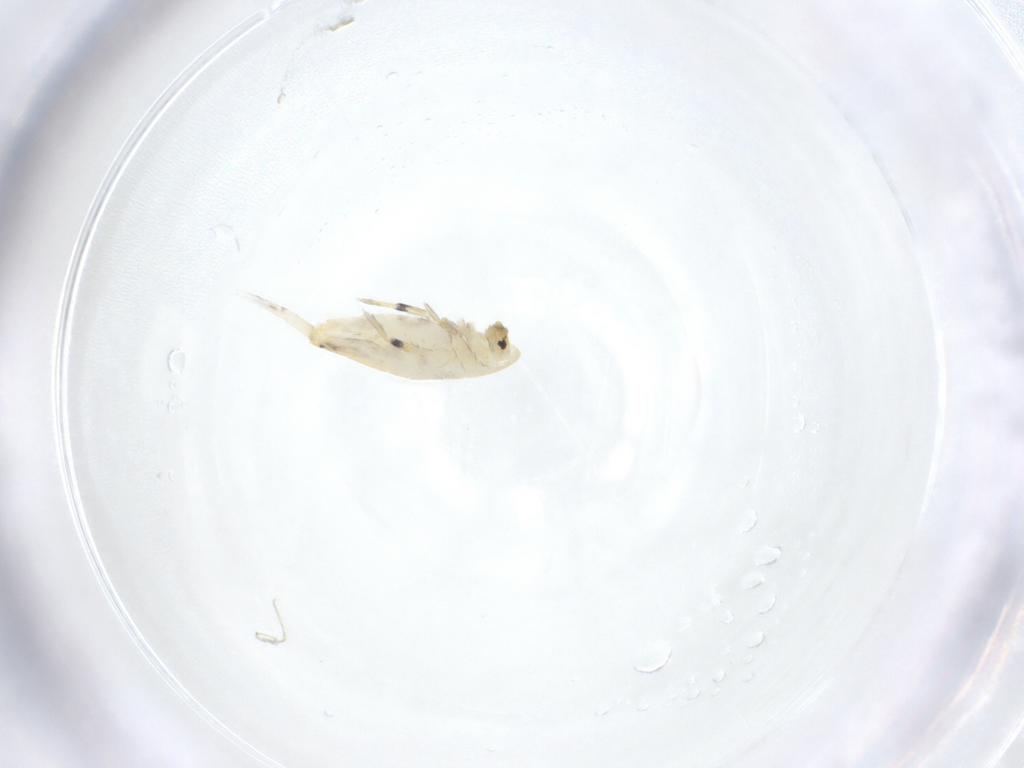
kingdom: Animalia
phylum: Arthropoda
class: Collembola
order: Entomobryomorpha
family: Entomobryidae
